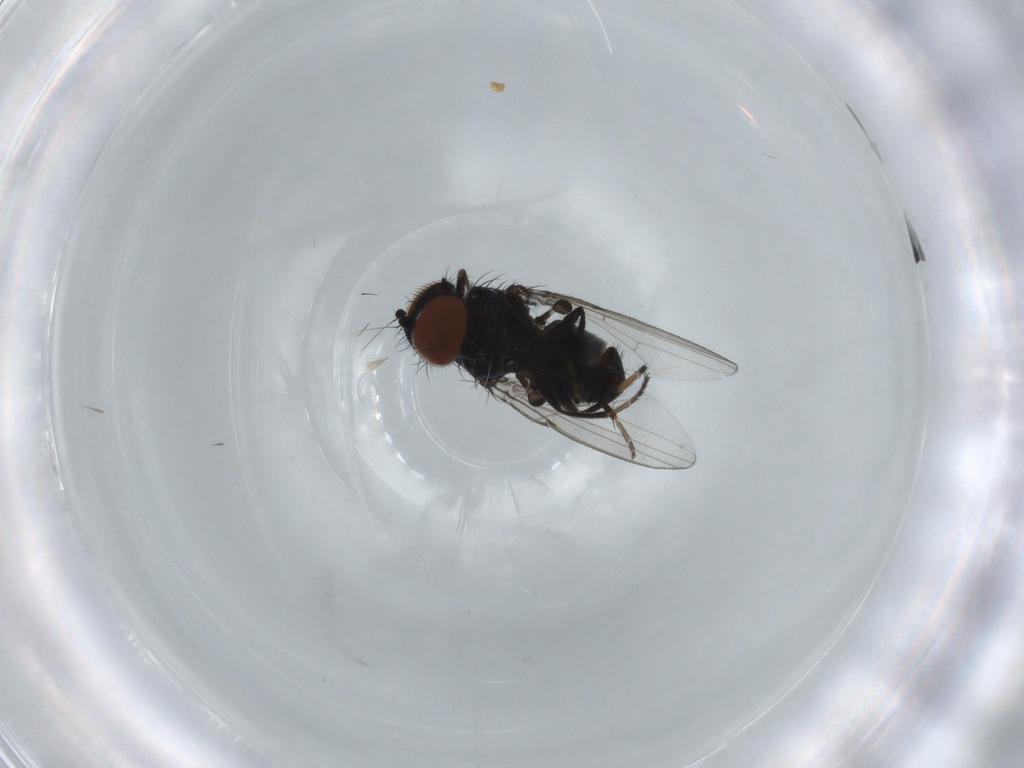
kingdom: Animalia
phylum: Arthropoda
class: Insecta
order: Diptera
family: Milichiidae
